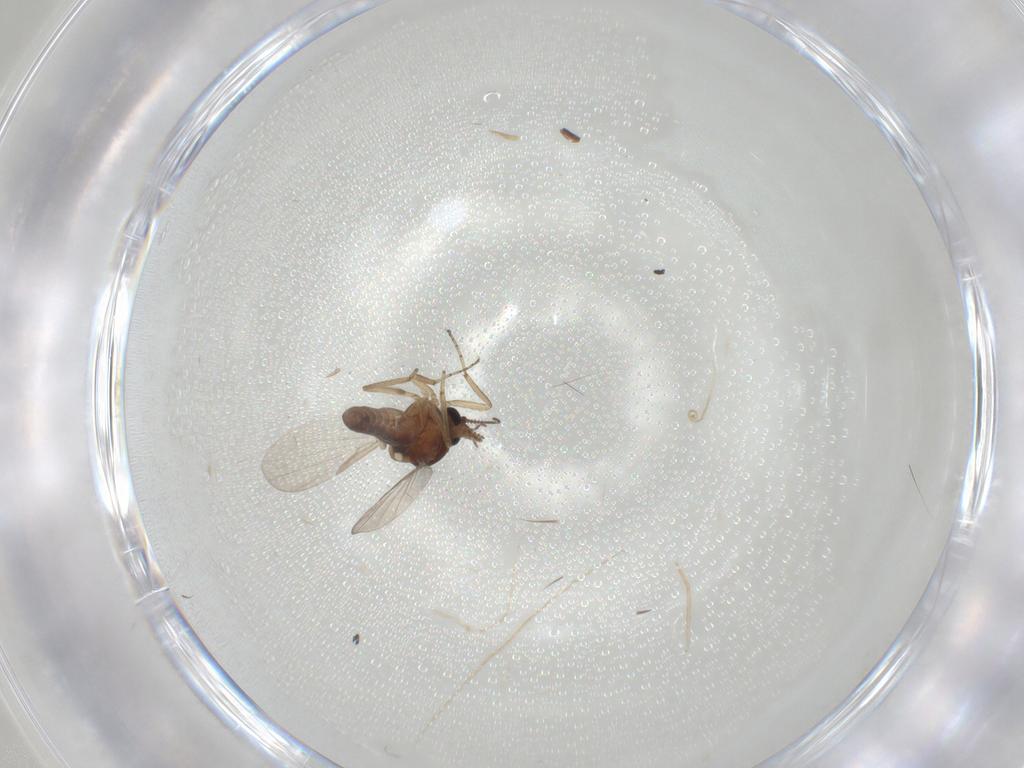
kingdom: Animalia
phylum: Arthropoda
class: Insecta
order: Diptera
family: Ceratopogonidae
